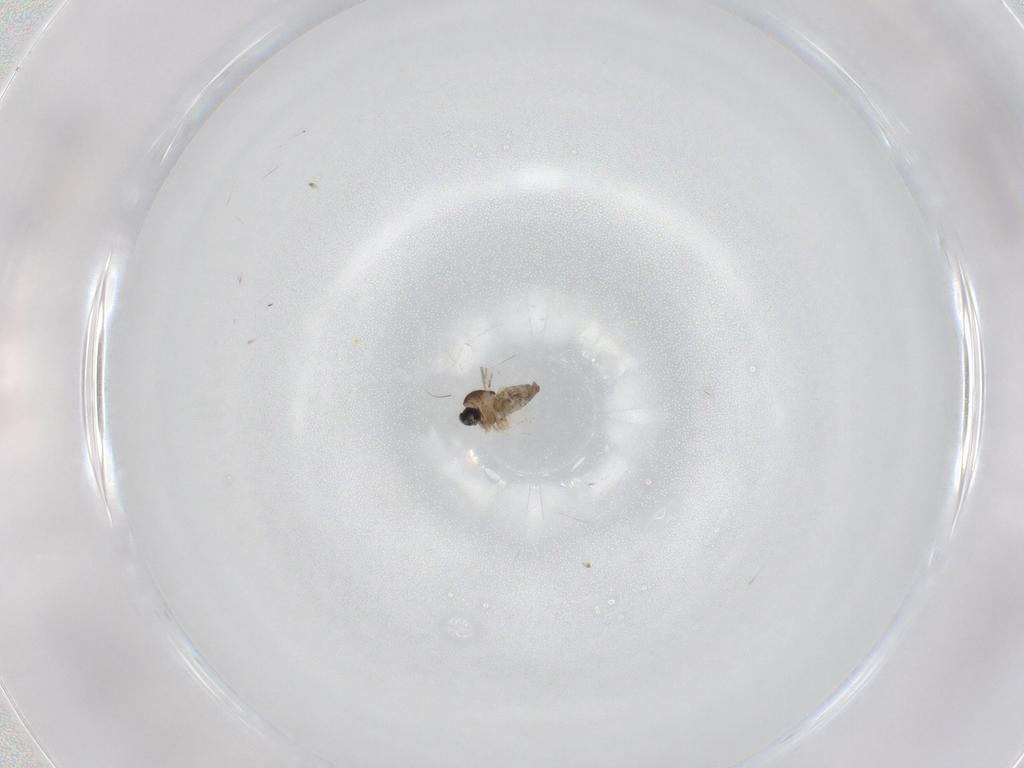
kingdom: Animalia
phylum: Arthropoda
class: Insecta
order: Diptera
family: Cecidomyiidae
